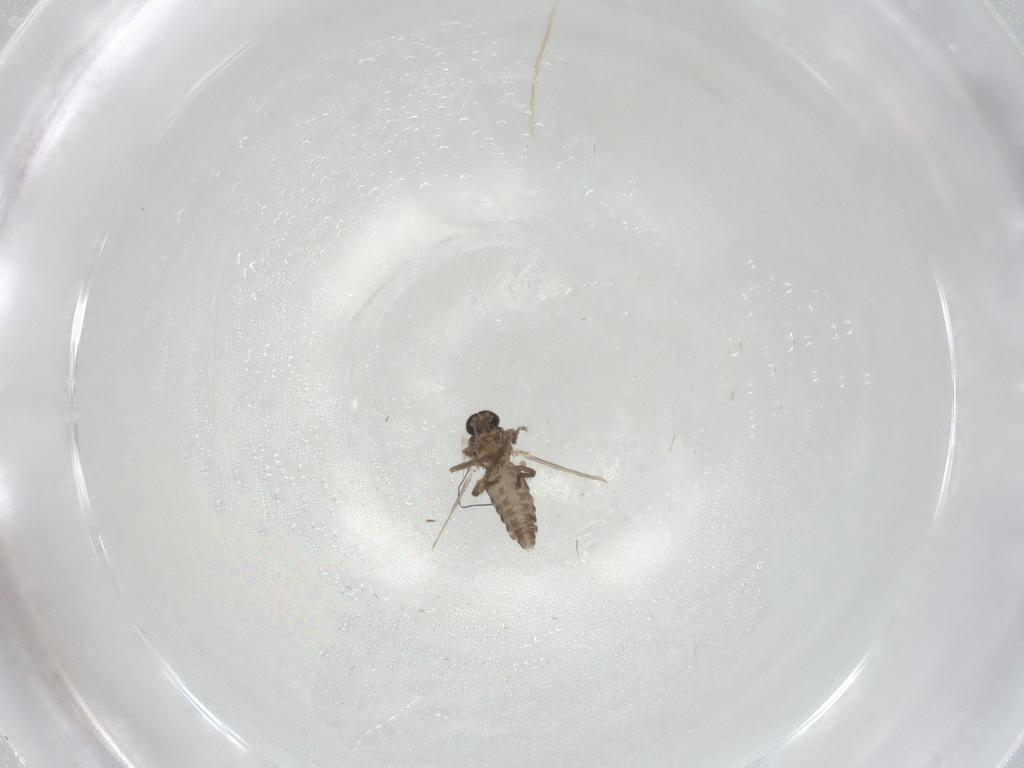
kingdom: Animalia
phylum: Arthropoda
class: Insecta
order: Diptera
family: Ceratopogonidae
